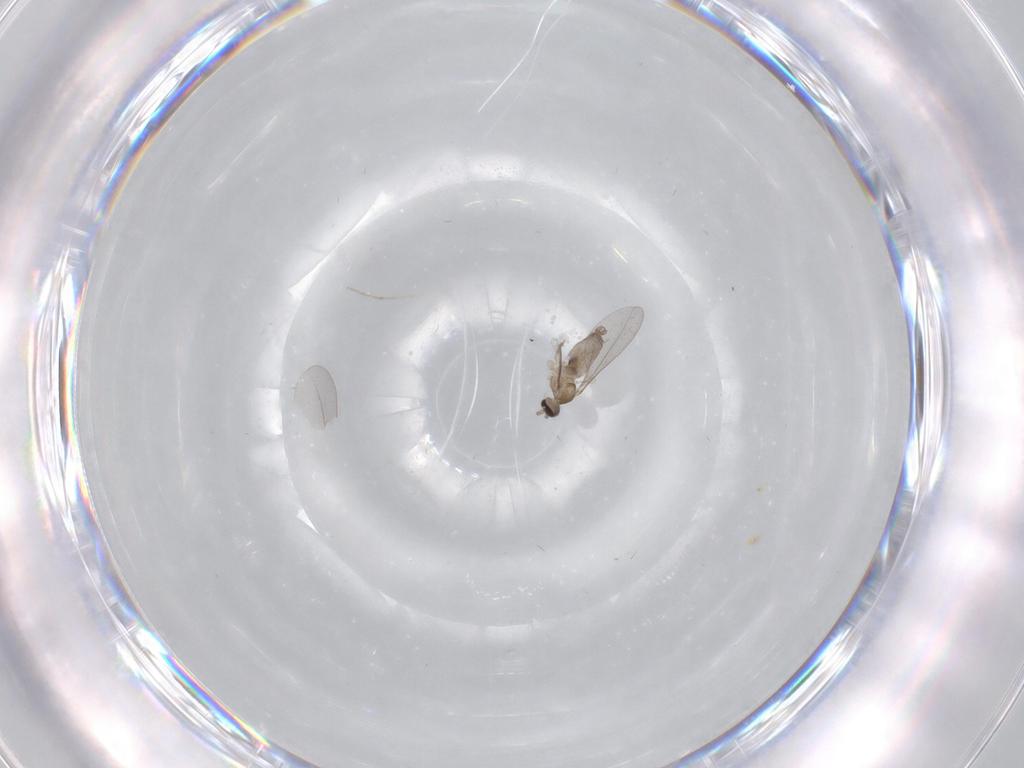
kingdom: Animalia
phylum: Arthropoda
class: Insecta
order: Diptera
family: Cecidomyiidae
